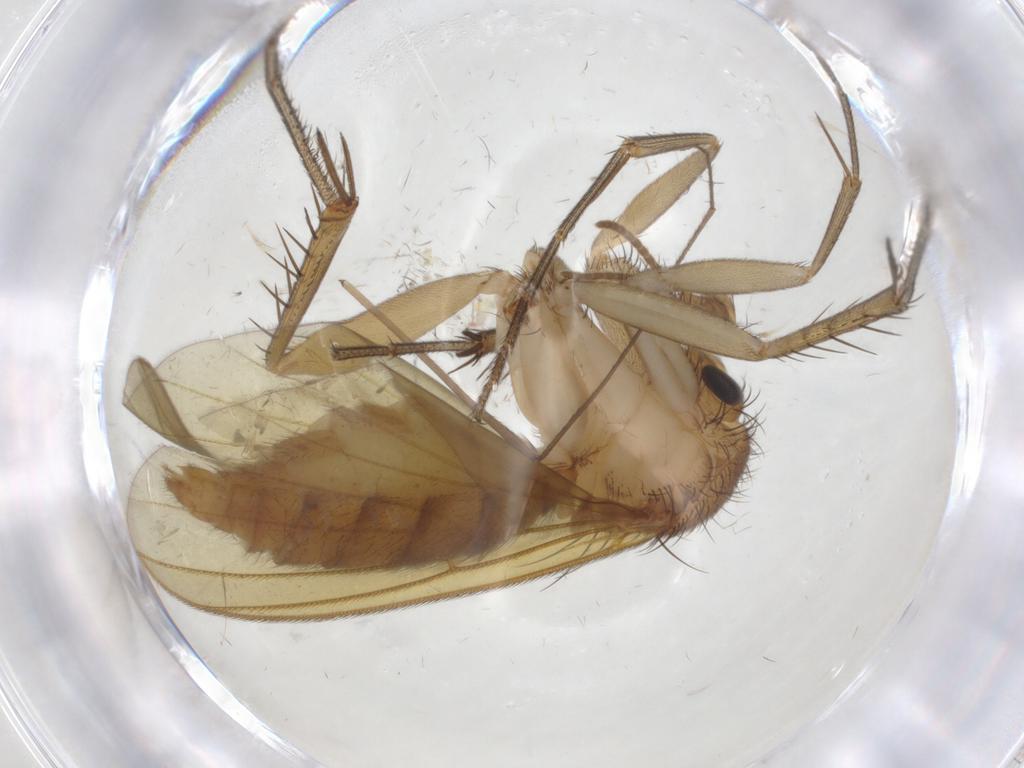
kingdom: Animalia
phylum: Arthropoda
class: Insecta
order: Diptera
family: Mycetophilidae
